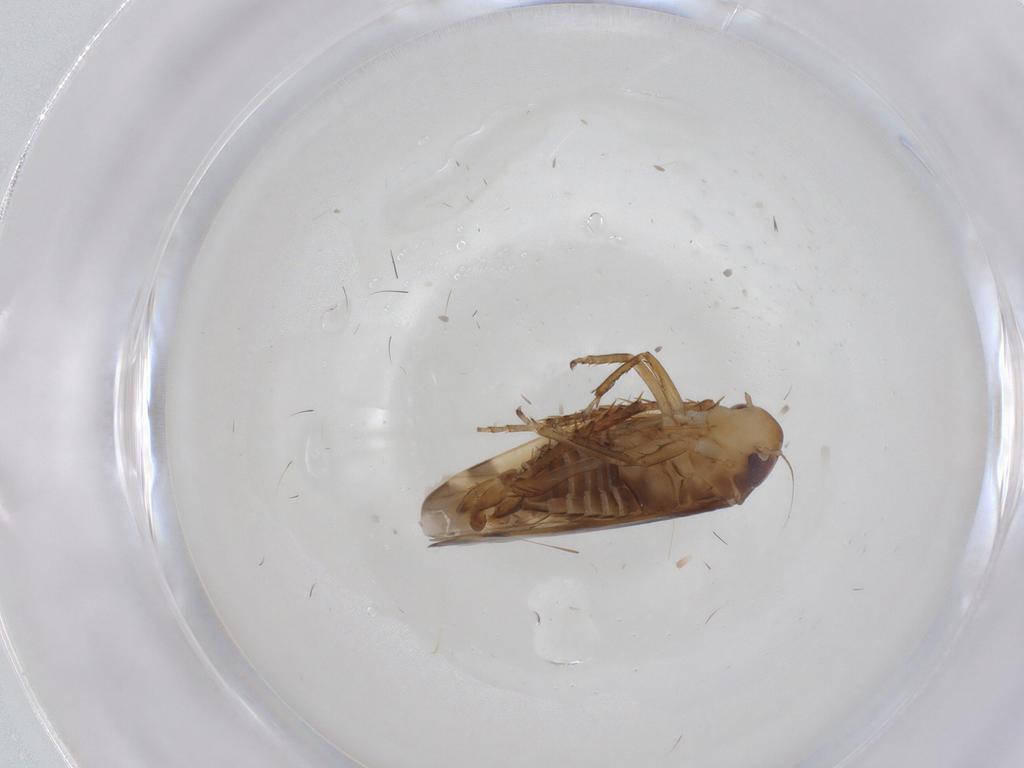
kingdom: Animalia
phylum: Arthropoda
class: Insecta
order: Hemiptera
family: Cicadellidae
